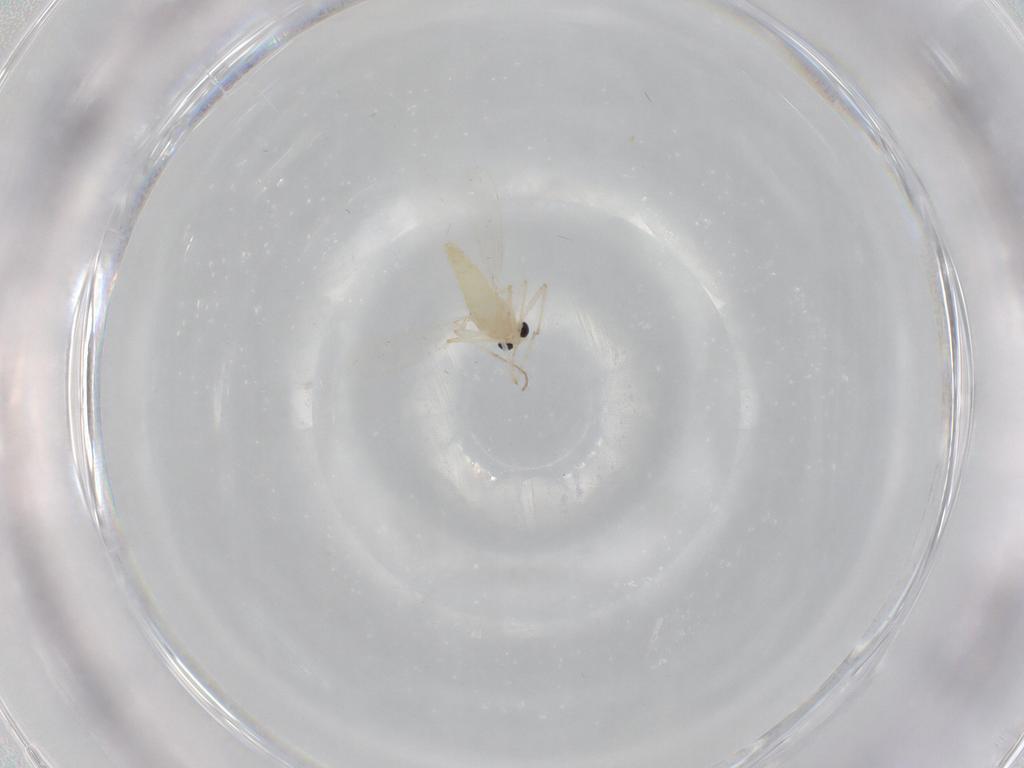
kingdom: Animalia
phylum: Arthropoda
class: Insecta
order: Diptera
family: Chironomidae
